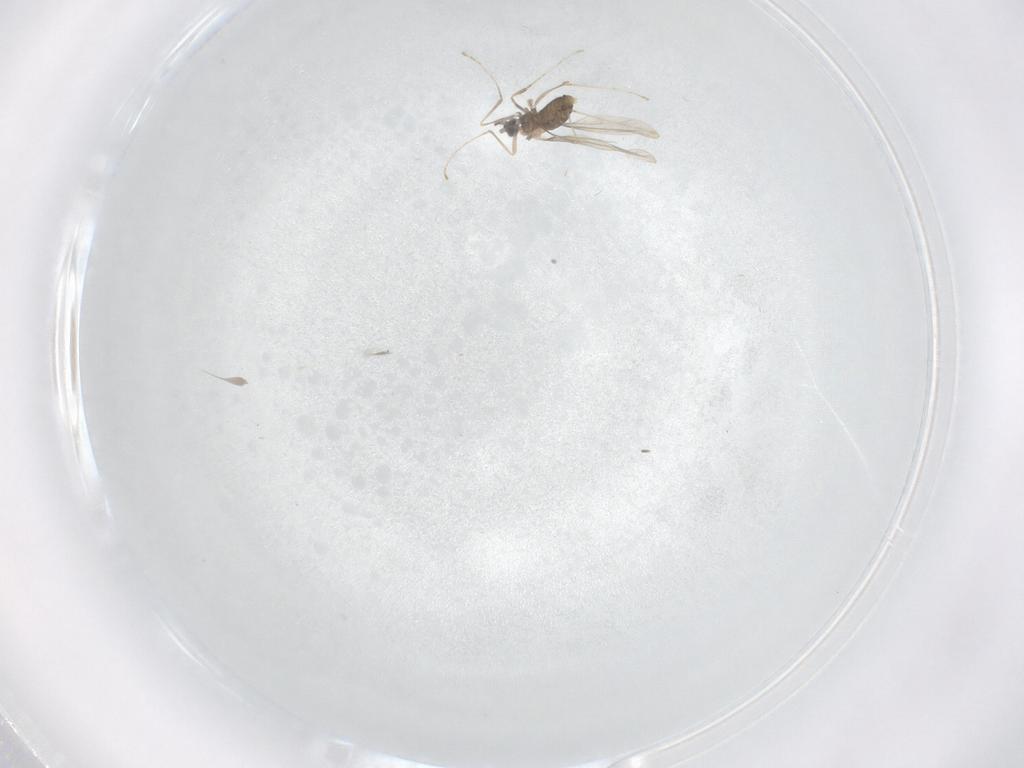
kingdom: Animalia
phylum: Arthropoda
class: Insecta
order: Diptera
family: Cecidomyiidae
